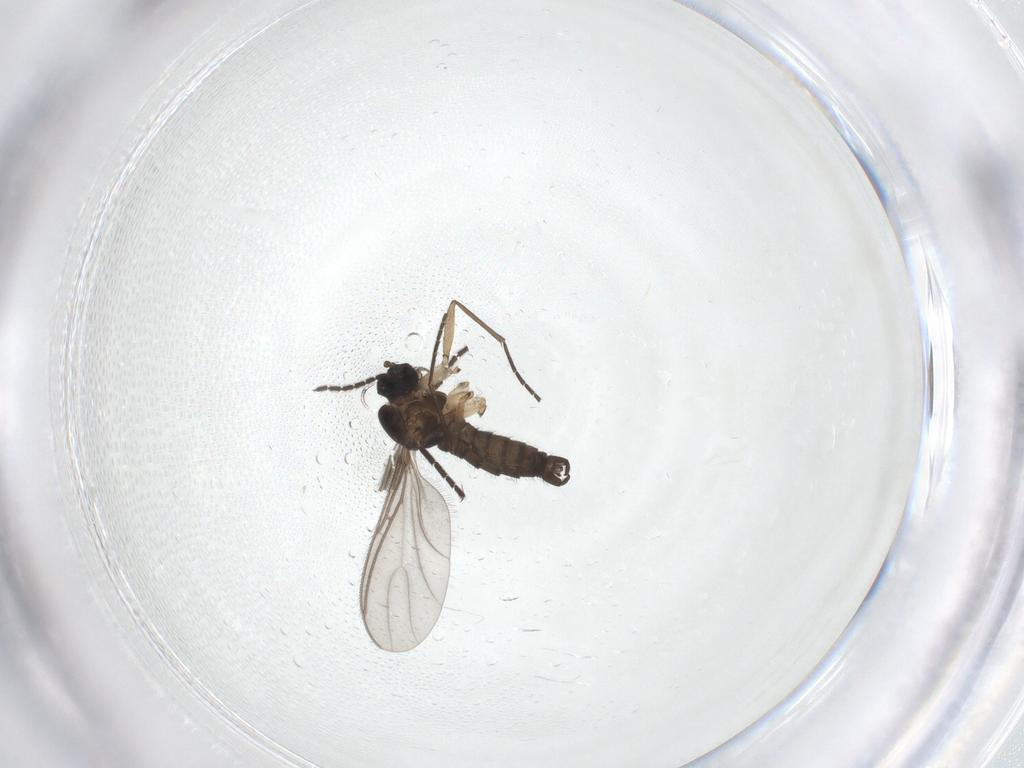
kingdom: Animalia
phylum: Arthropoda
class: Insecta
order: Diptera
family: Sciaridae
